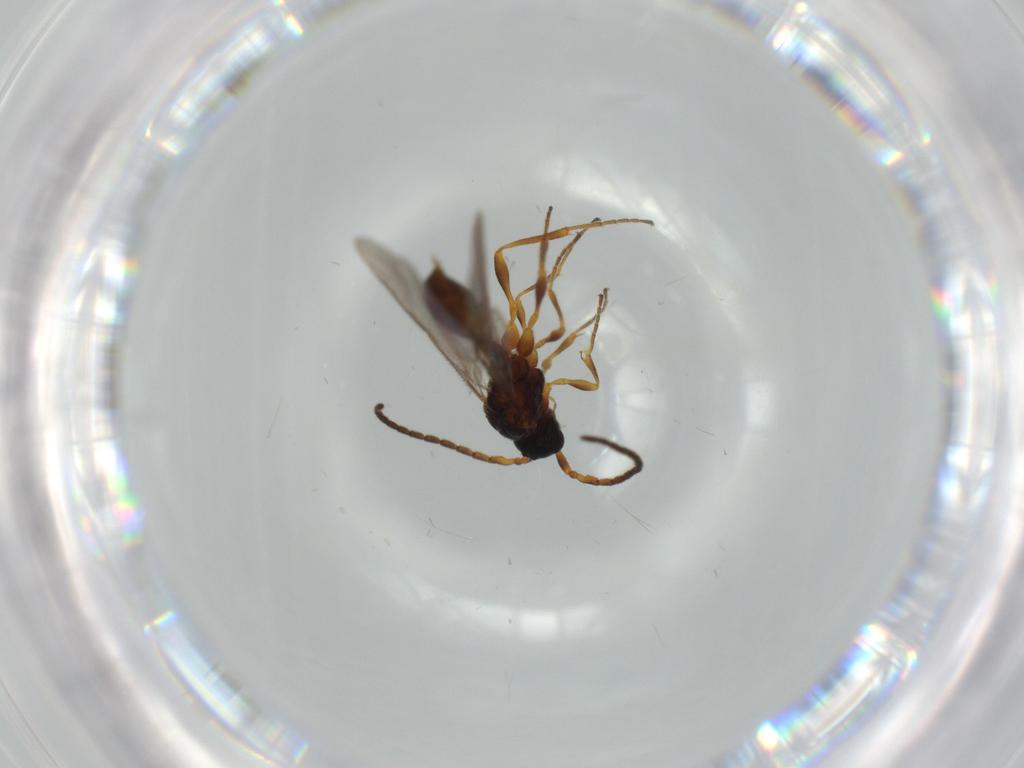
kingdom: Animalia
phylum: Arthropoda
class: Insecta
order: Hymenoptera
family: Diapriidae
